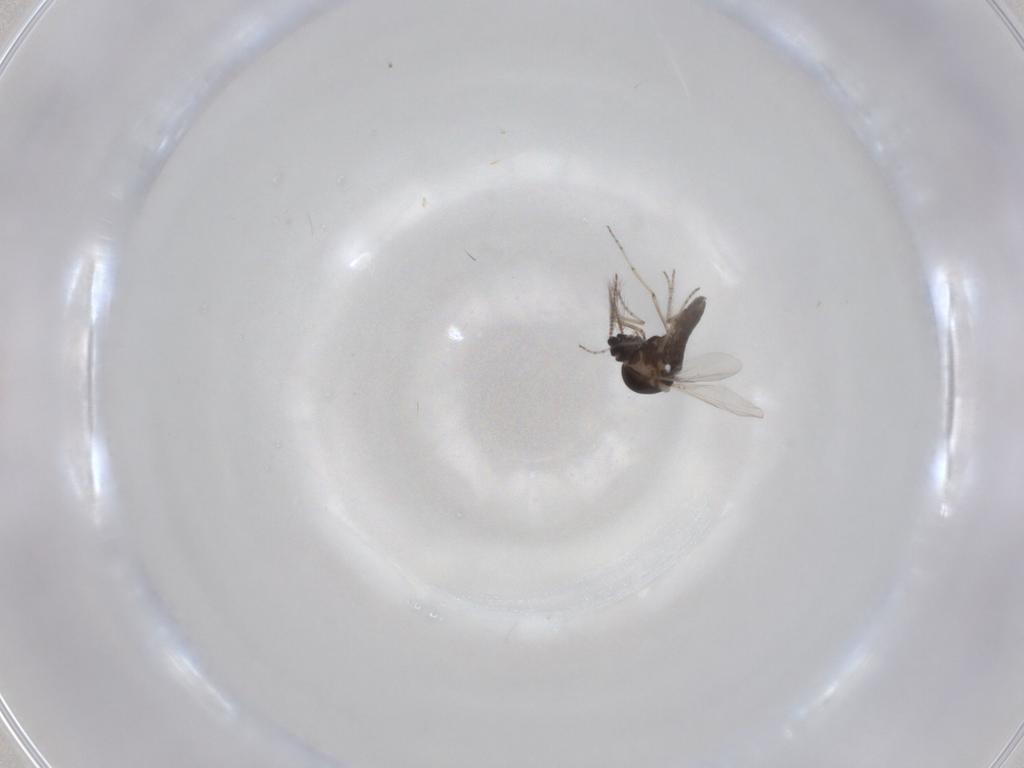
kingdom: Animalia
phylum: Arthropoda
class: Insecta
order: Diptera
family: Ceratopogonidae
